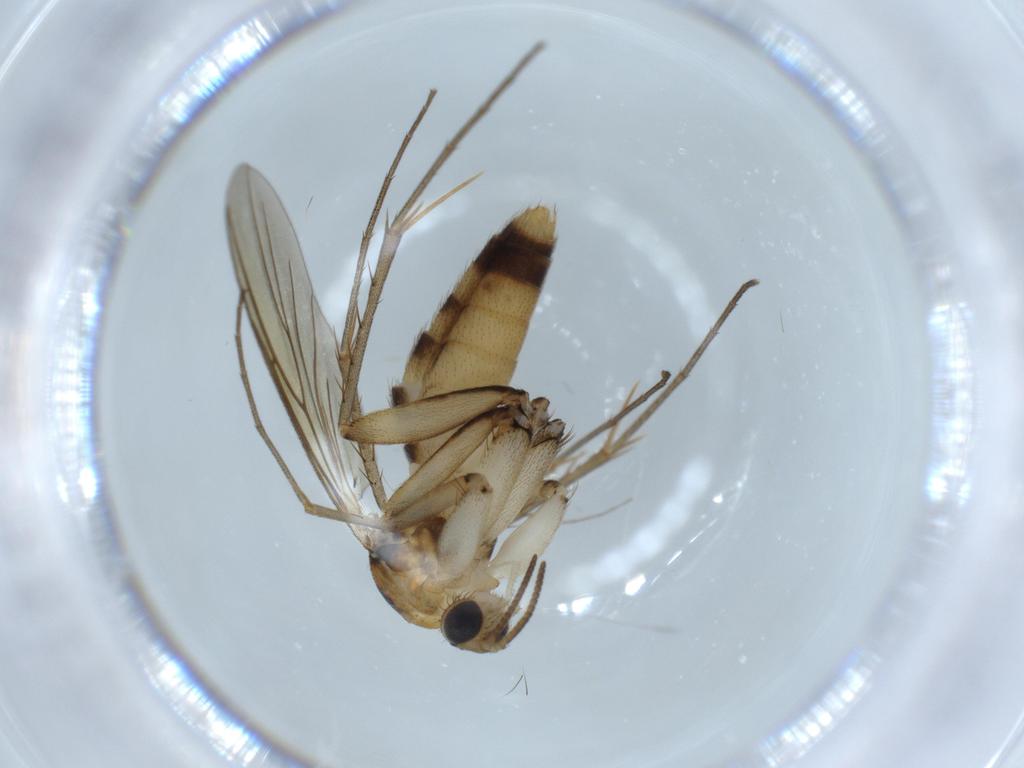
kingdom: Animalia
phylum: Arthropoda
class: Insecta
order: Diptera
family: Mycetophilidae
